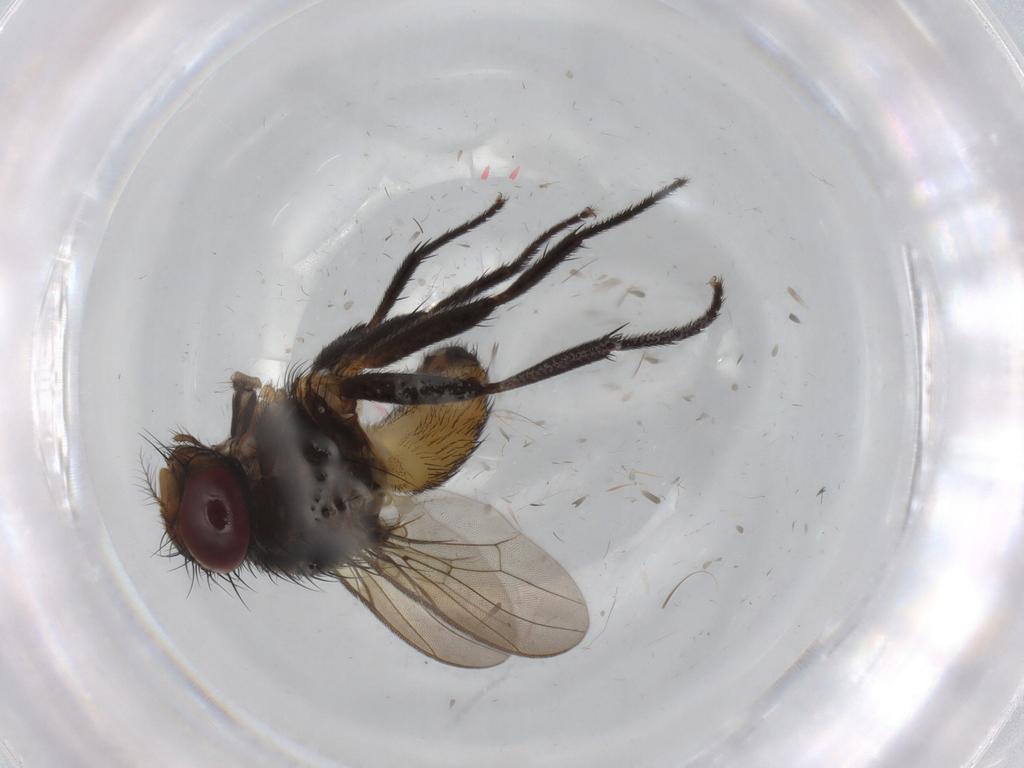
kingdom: Animalia
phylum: Arthropoda
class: Insecta
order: Diptera
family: Anthomyiidae
